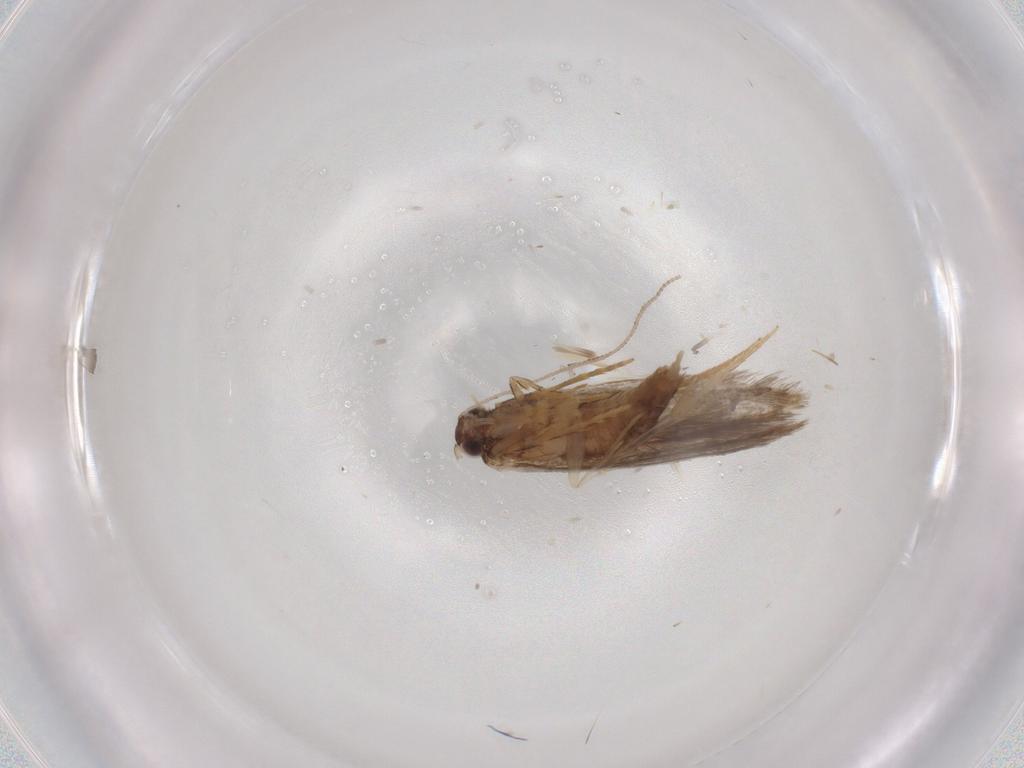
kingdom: Animalia
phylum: Arthropoda
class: Insecta
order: Lepidoptera
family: Tineidae
